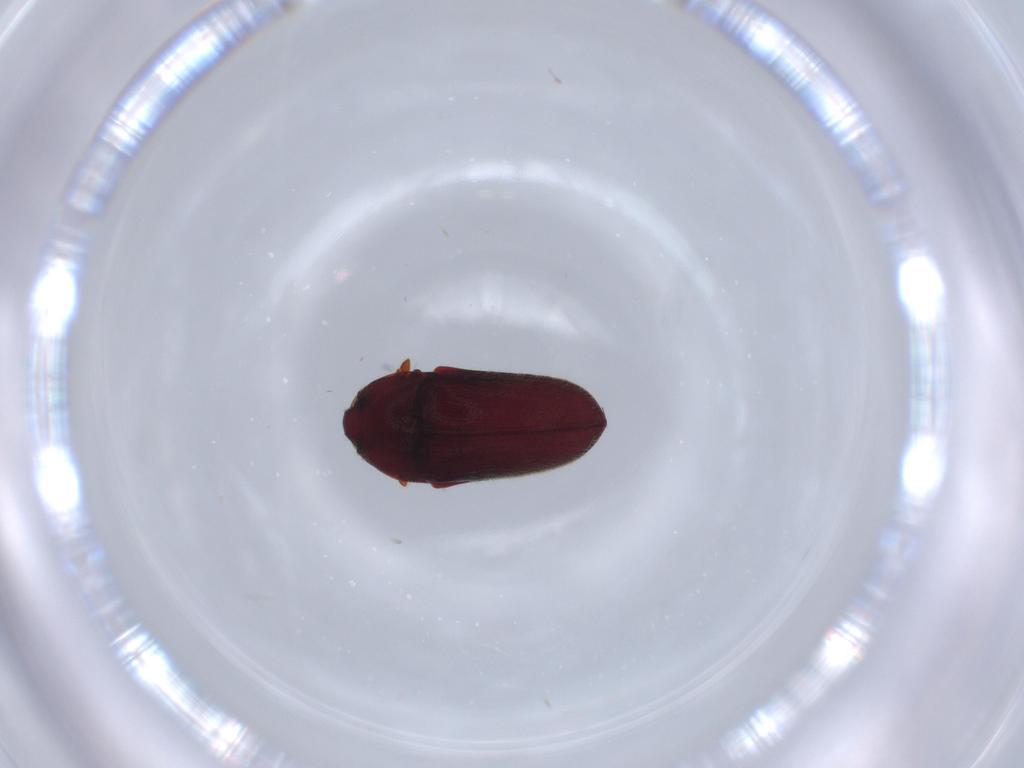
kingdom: Animalia
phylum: Arthropoda
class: Insecta
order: Coleoptera
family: Throscidae
